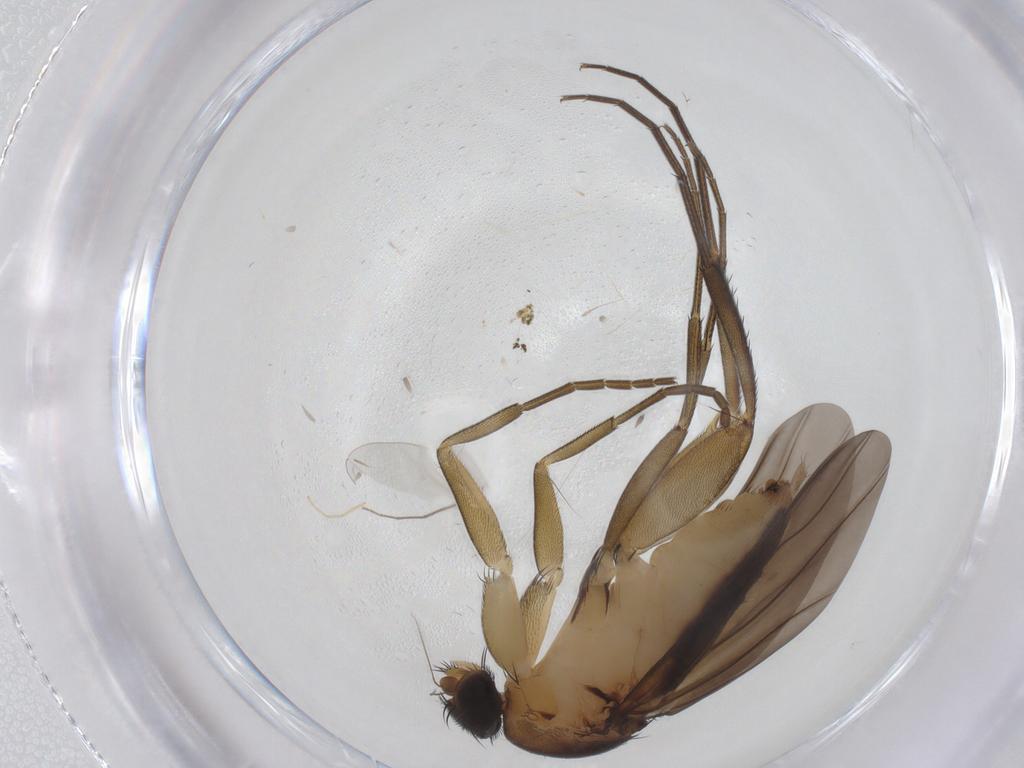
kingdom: Animalia
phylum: Arthropoda
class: Insecta
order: Diptera
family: Phoridae
